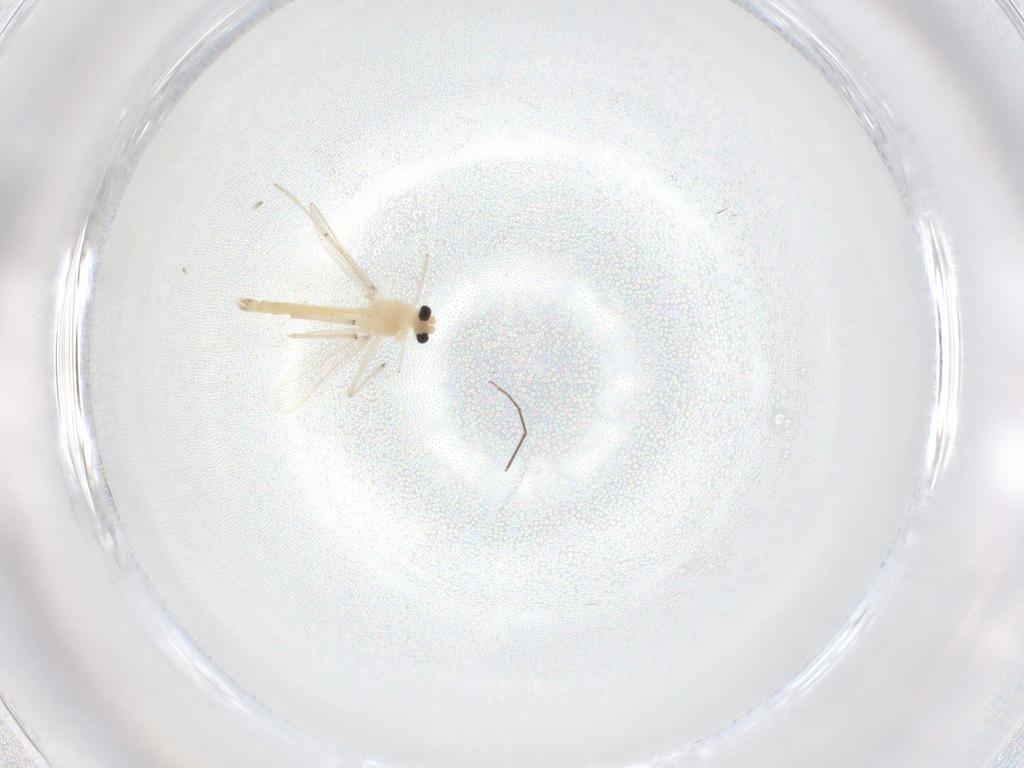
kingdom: Animalia
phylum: Arthropoda
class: Insecta
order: Diptera
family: Chironomidae
